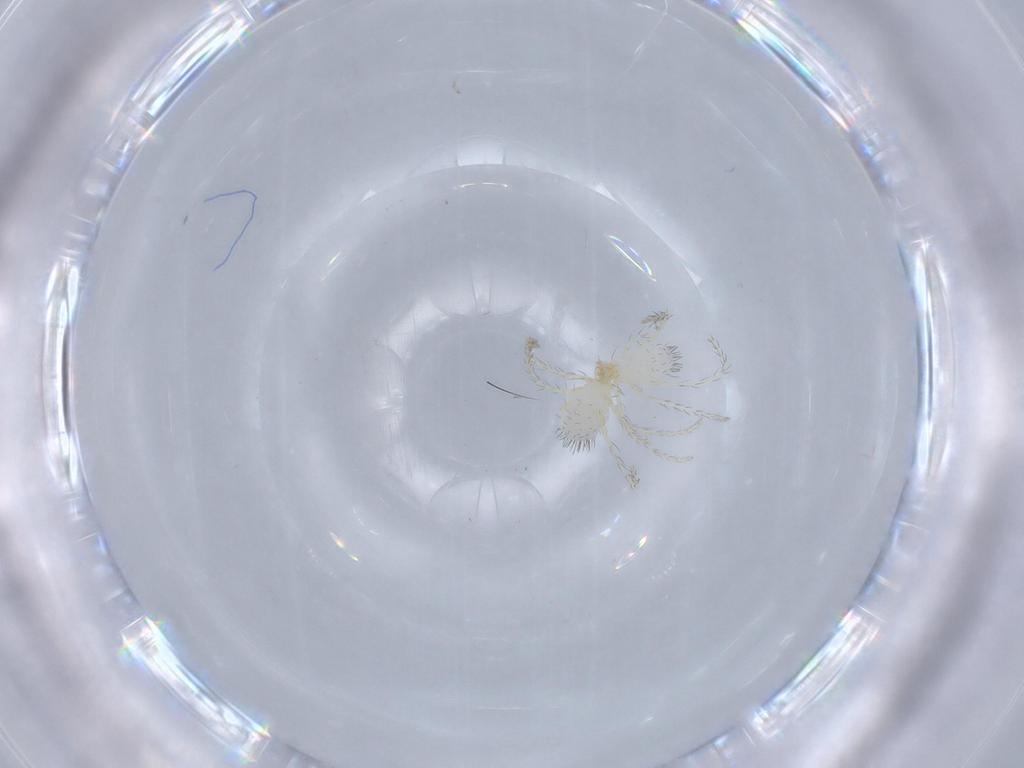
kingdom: Animalia
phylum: Arthropoda
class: Arachnida
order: Trombidiformes
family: Erythraeidae
